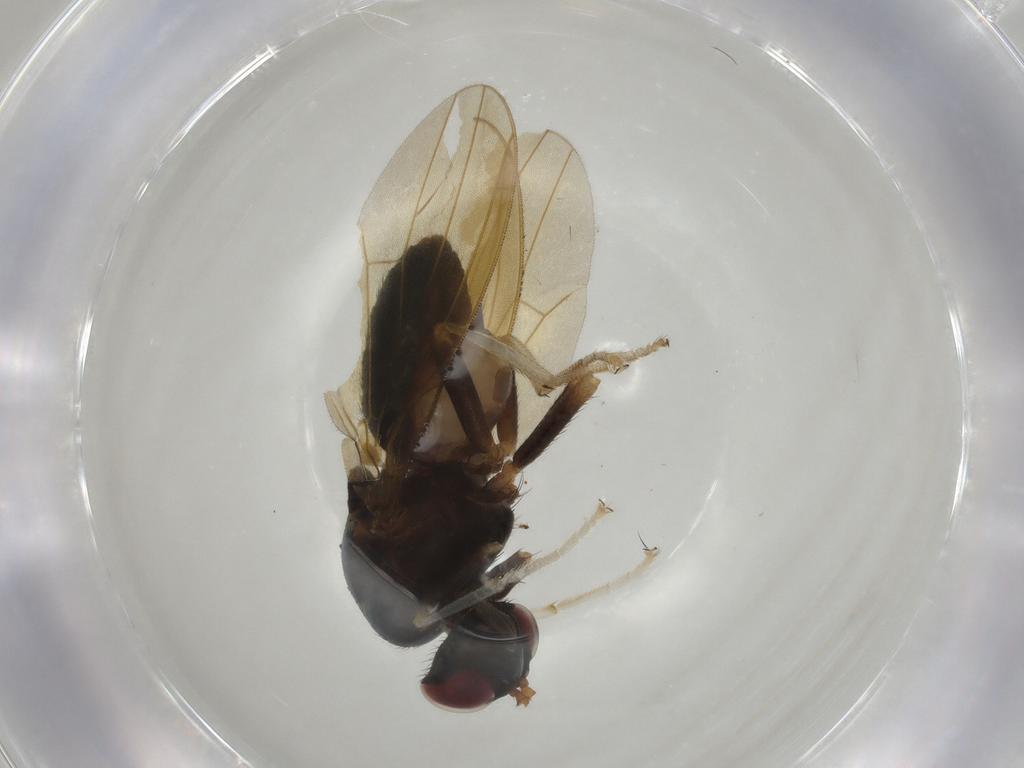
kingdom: Animalia
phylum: Arthropoda
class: Insecta
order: Diptera
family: Lauxaniidae
